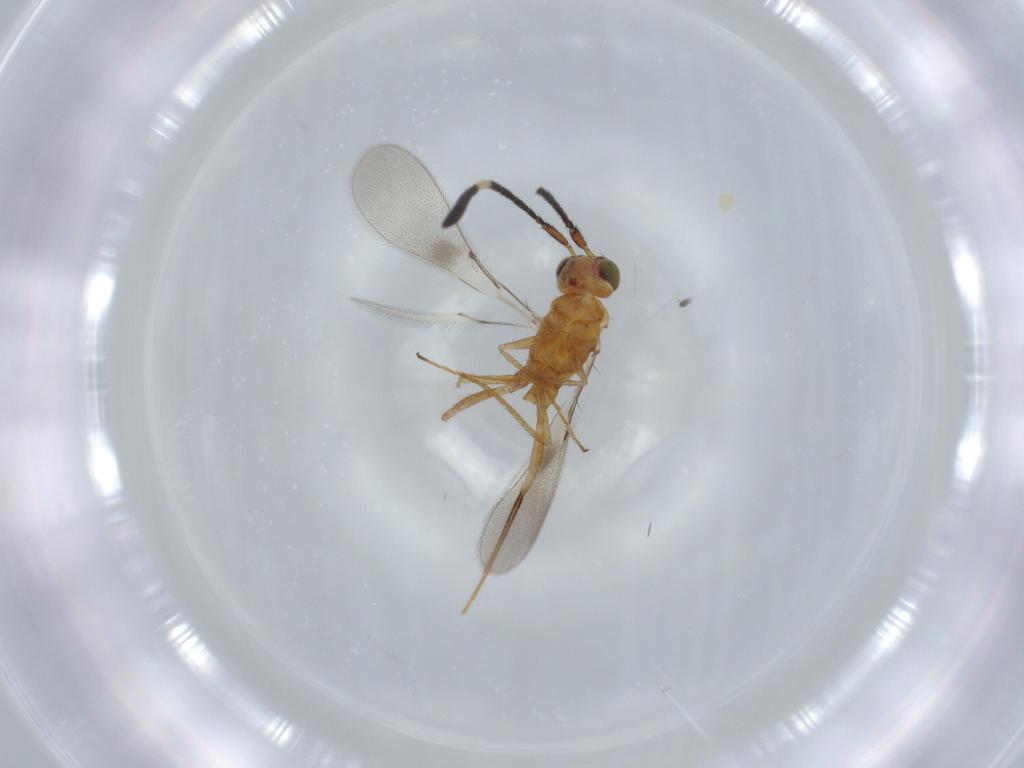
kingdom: Animalia
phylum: Arthropoda
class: Insecta
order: Hymenoptera
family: Mymaridae
